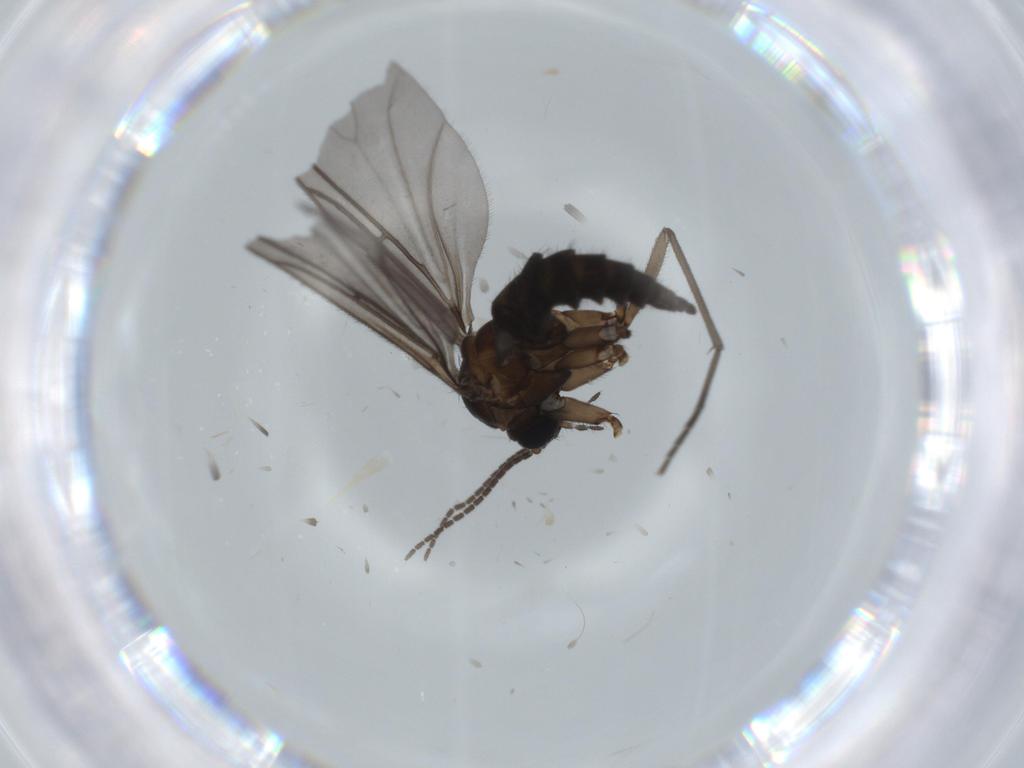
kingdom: Animalia
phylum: Arthropoda
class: Insecta
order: Diptera
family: Sciaridae
